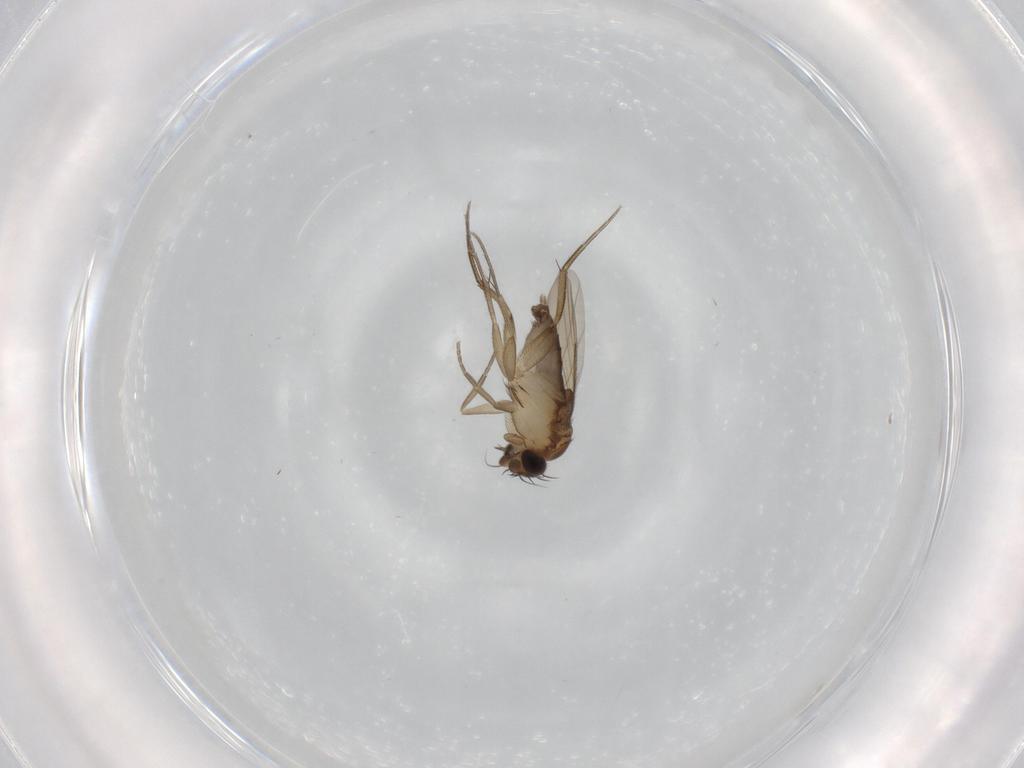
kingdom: Animalia
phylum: Arthropoda
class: Insecta
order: Diptera
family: Phoridae
